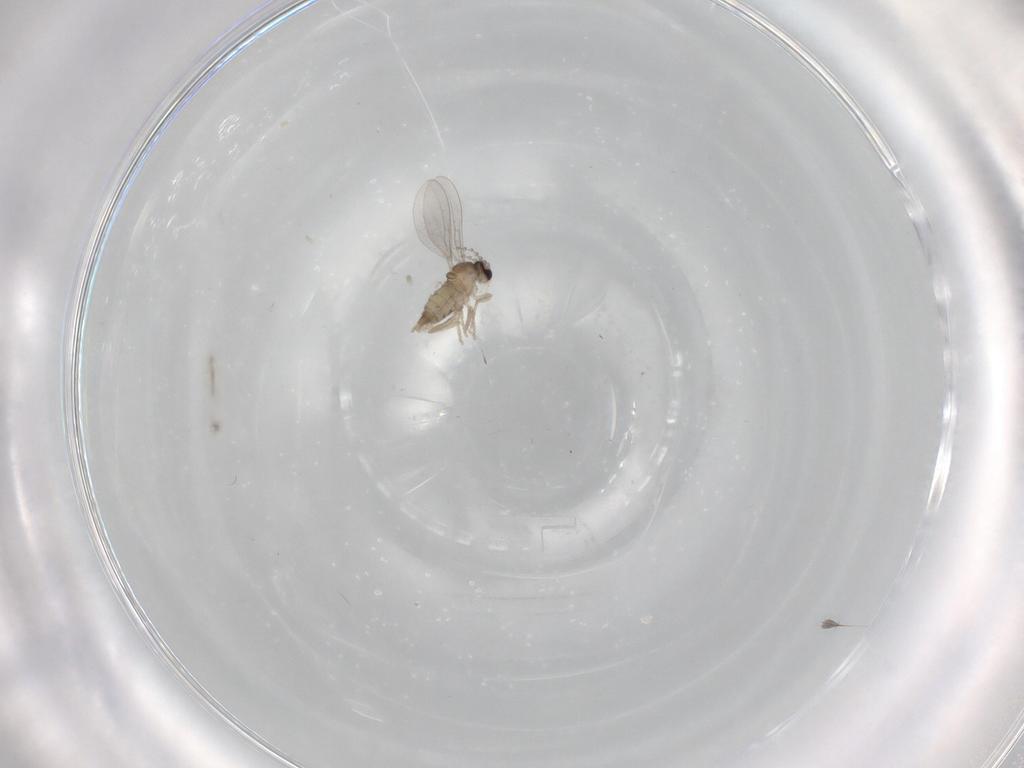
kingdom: Animalia
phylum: Arthropoda
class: Insecta
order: Diptera
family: Cecidomyiidae
